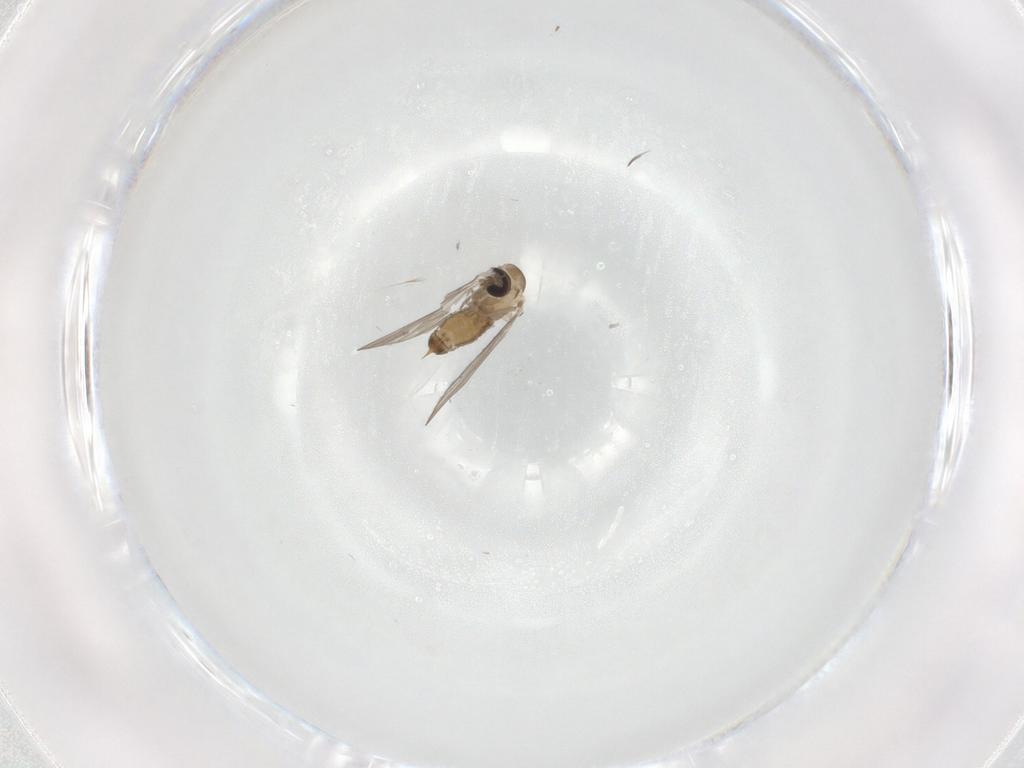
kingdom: Animalia
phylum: Arthropoda
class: Insecta
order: Diptera
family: Psychodidae
